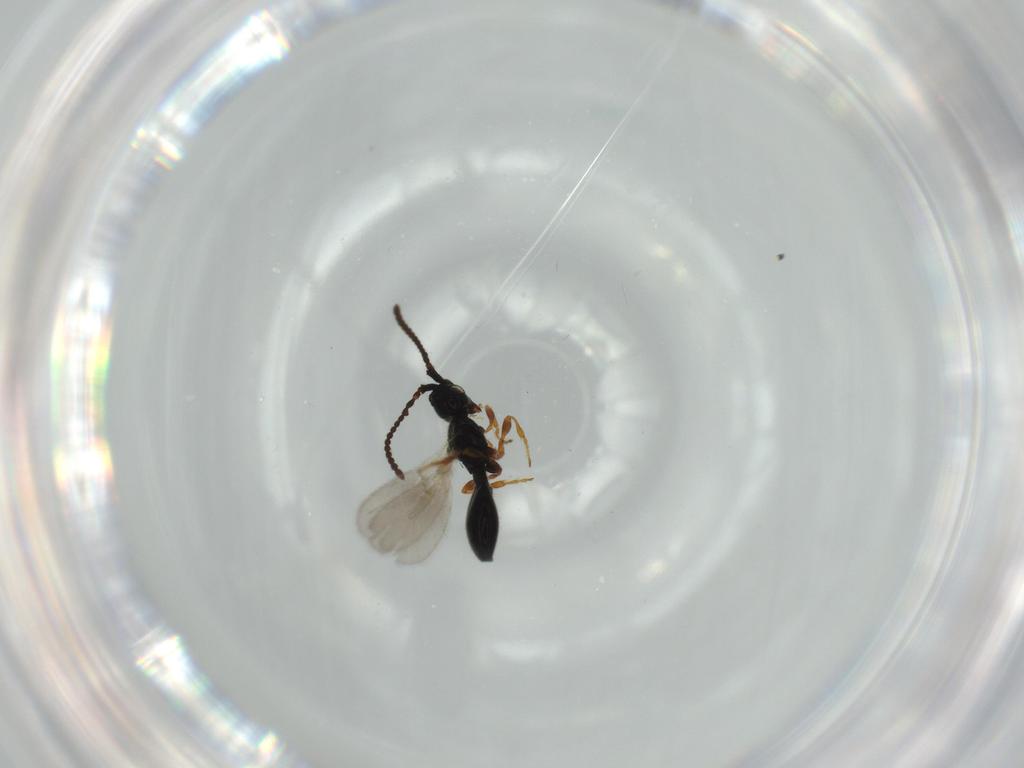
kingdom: Animalia
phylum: Arthropoda
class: Insecta
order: Hymenoptera
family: Diapriidae
